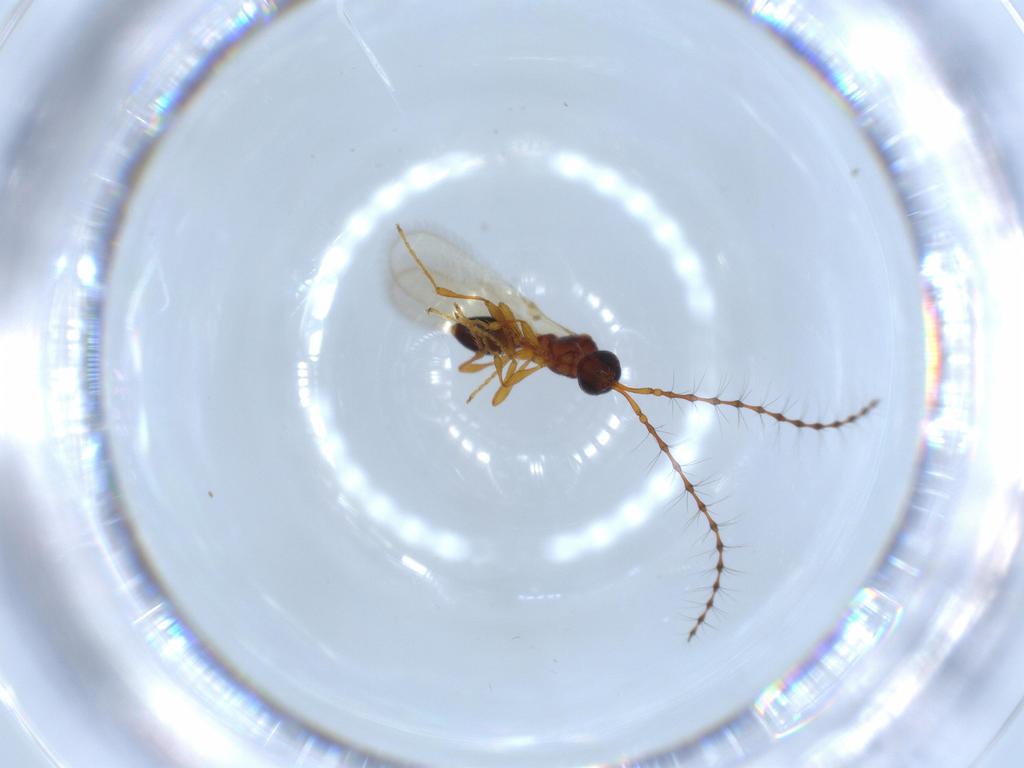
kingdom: Animalia
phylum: Arthropoda
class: Insecta
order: Hymenoptera
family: Diapriidae
